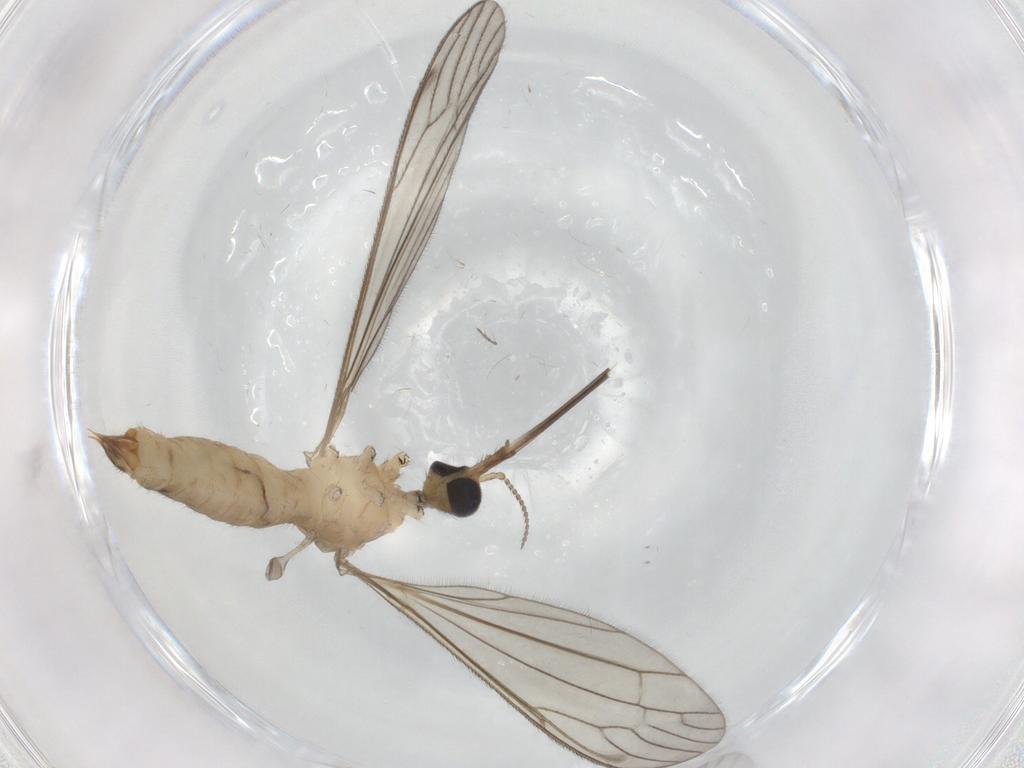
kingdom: Animalia
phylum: Arthropoda
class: Insecta
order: Diptera
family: Chironomidae
